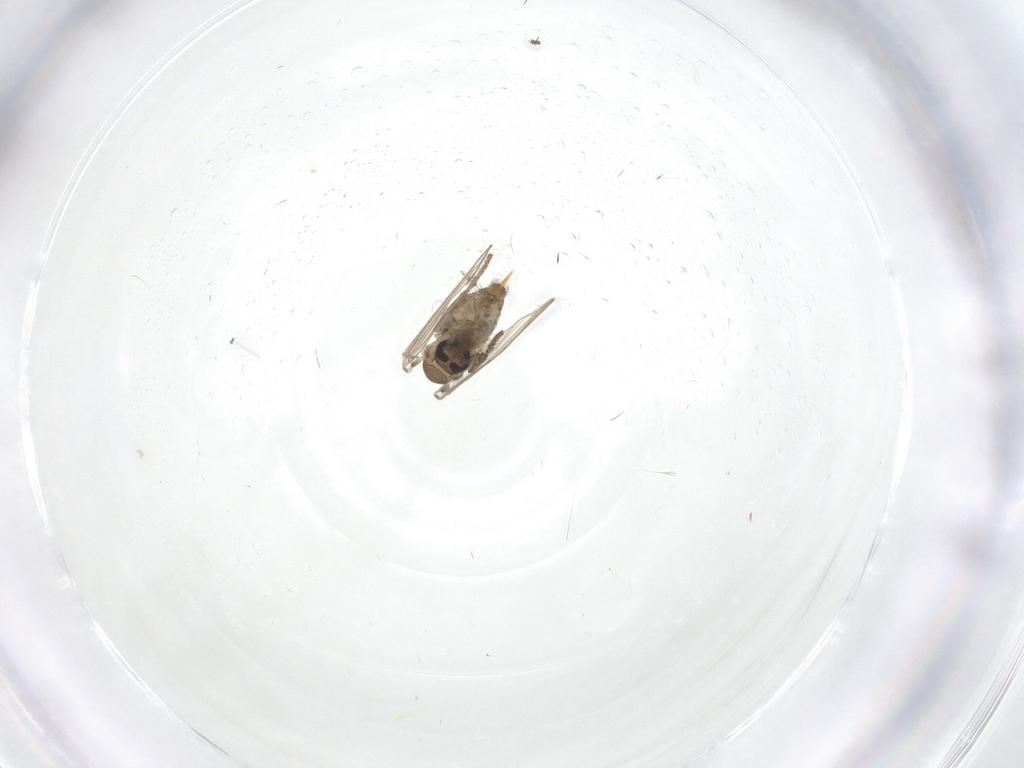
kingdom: Animalia
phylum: Arthropoda
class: Insecta
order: Diptera
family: Psychodidae
